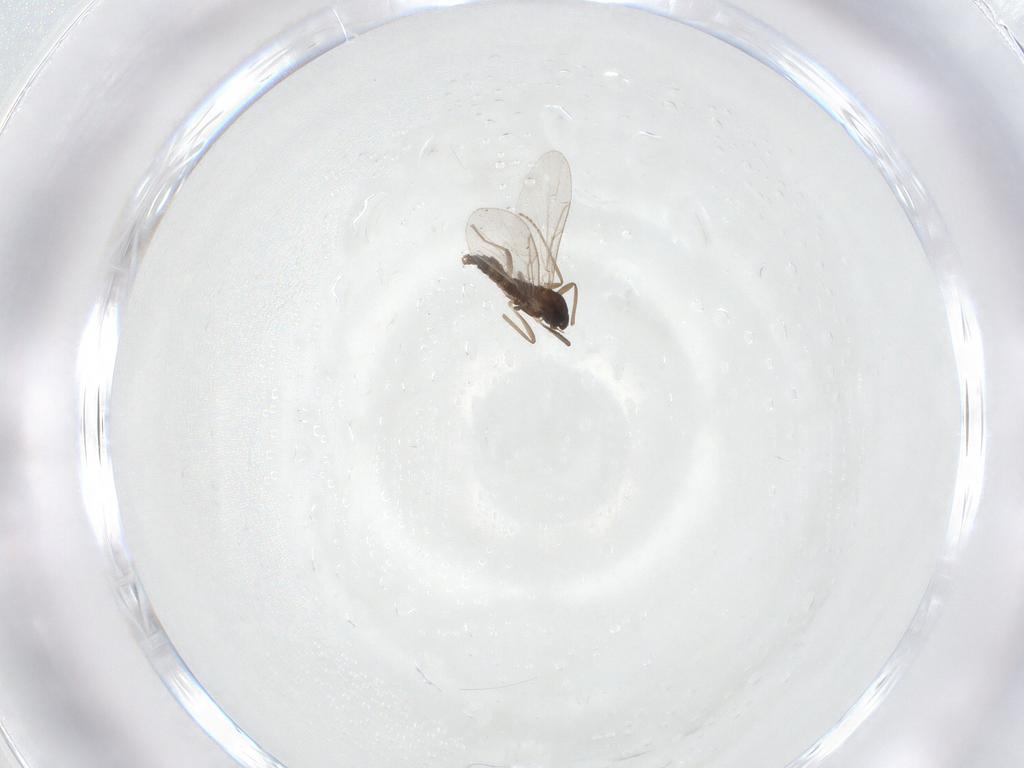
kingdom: Animalia
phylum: Arthropoda
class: Insecta
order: Diptera
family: Cecidomyiidae
